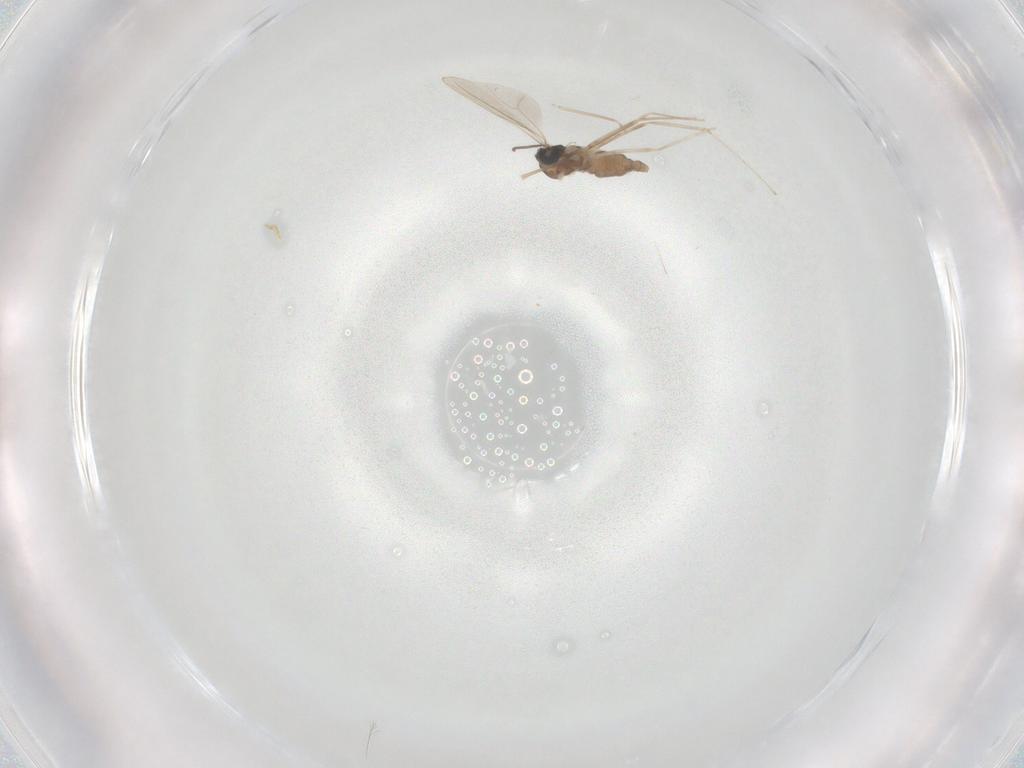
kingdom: Animalia
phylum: Arthropoda
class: Insecta
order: Diptera
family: Cecidomyiidae
